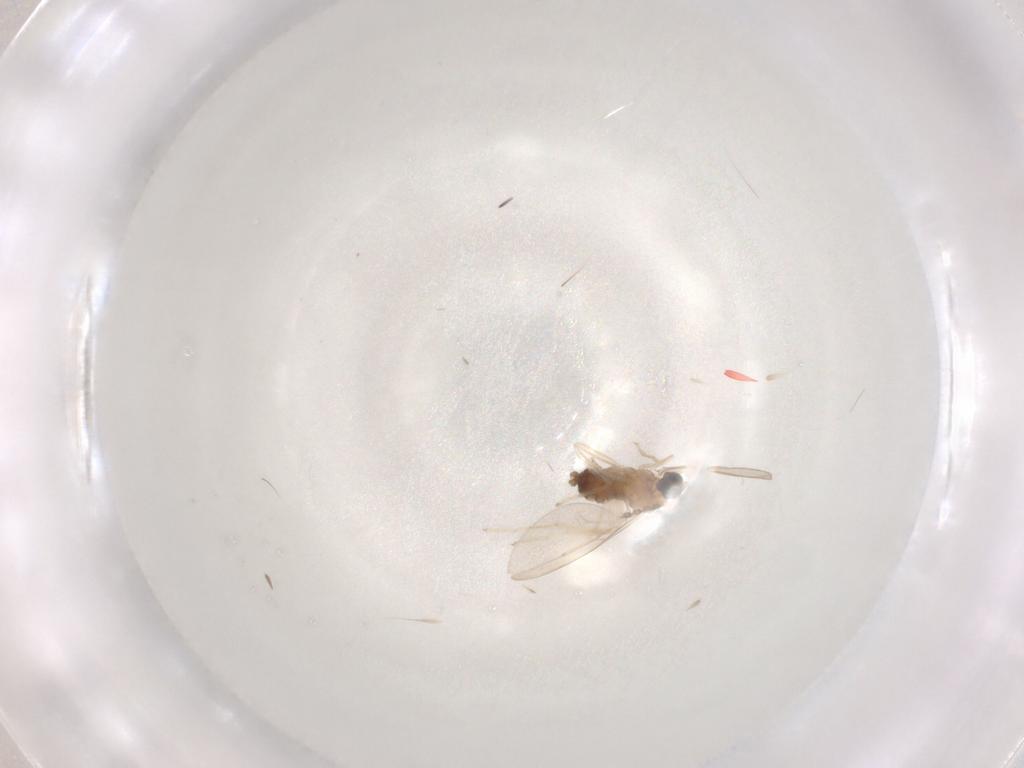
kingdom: Animalia
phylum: Arthropoda
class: Insecta
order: Diptera
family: Cecidomyiidae
